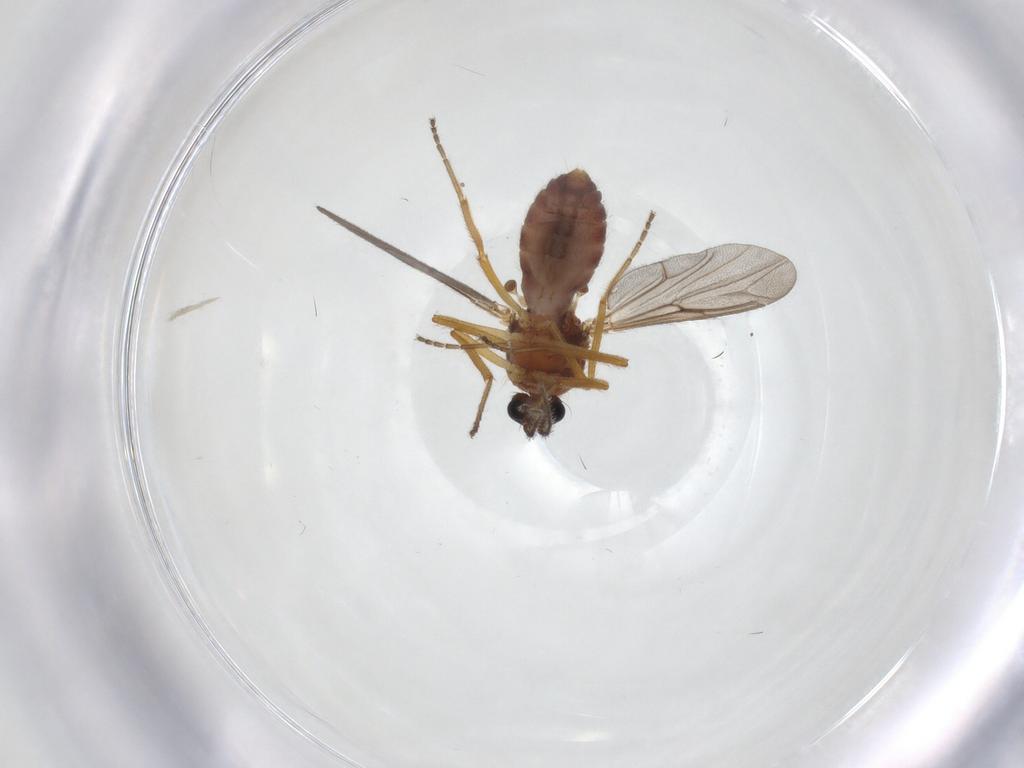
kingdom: Animalia
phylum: Arthropoda
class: Insecta
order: Diptera
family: Ceratopogonidae
